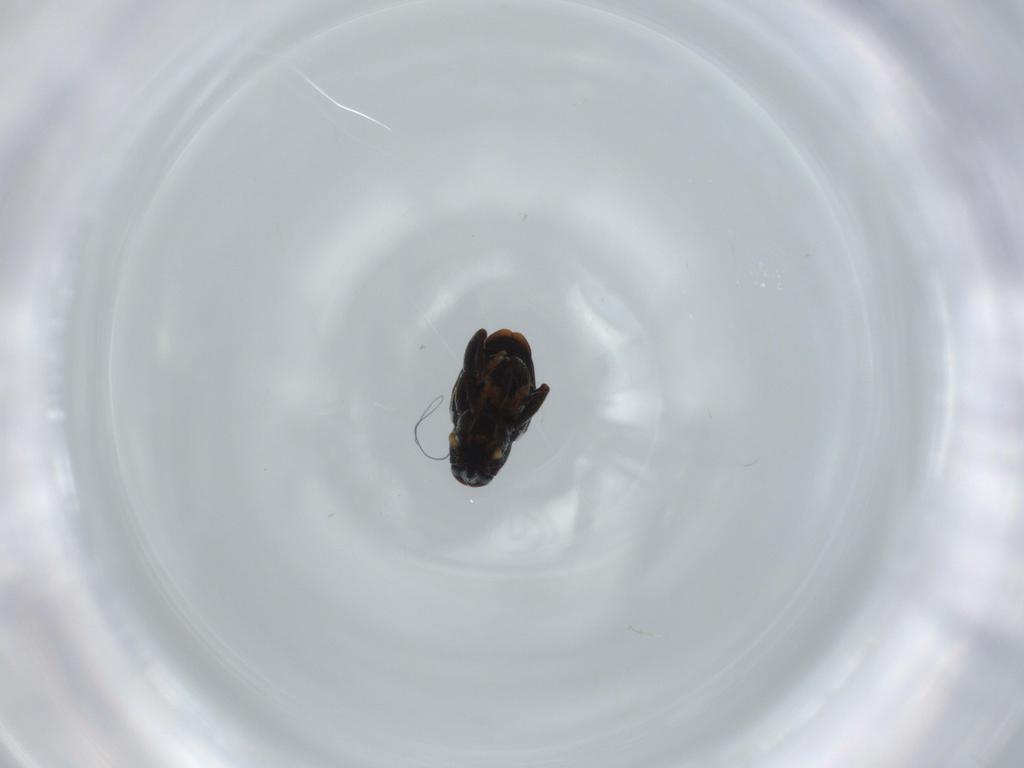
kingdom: Animalia
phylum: Arthropoda
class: Insecta
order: Coleoptera
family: Curculionidae
